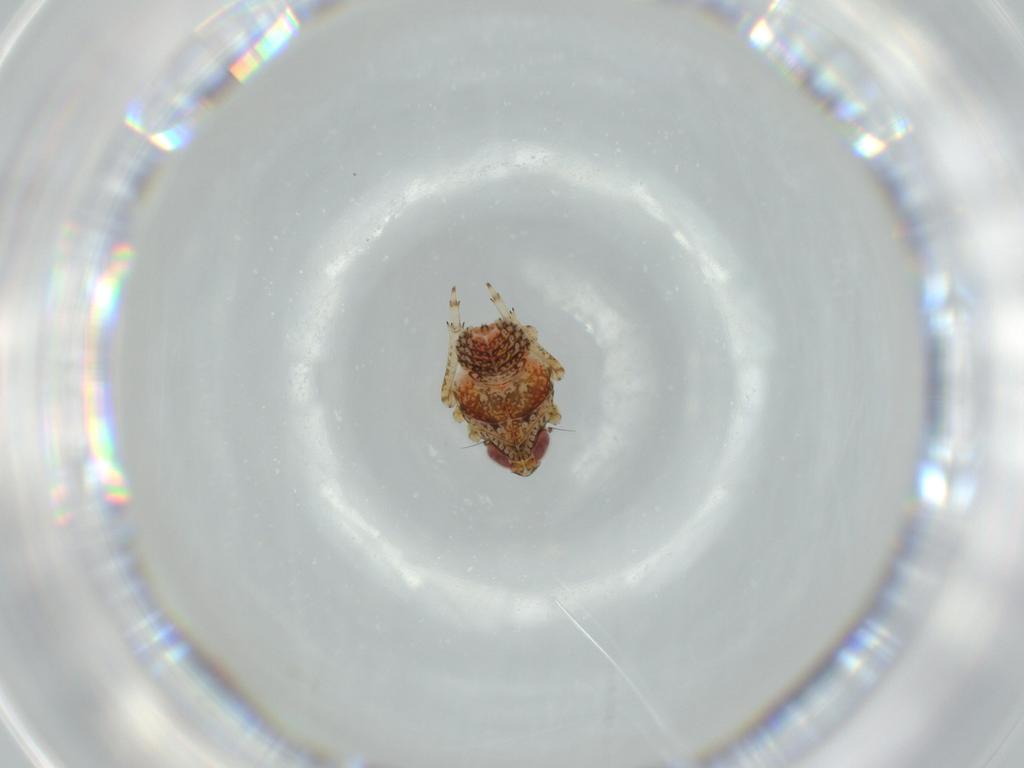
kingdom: Animalia
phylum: Arthropoda
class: Insecta
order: Hemiptera
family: Issidae
